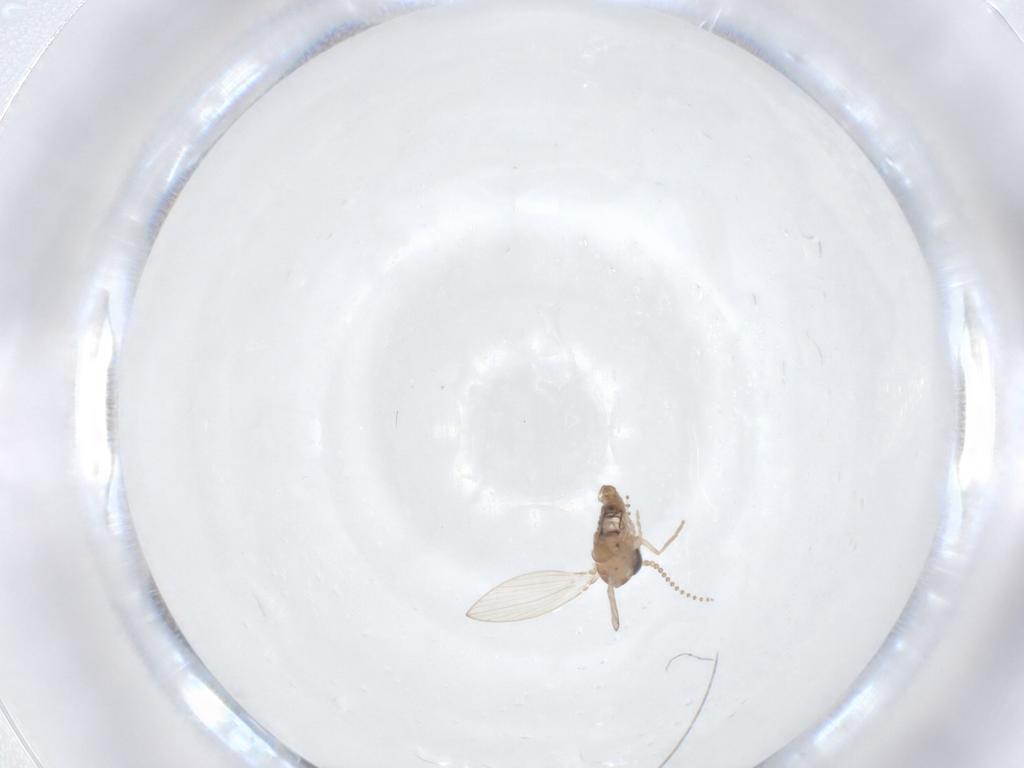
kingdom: Animalia
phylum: Arthropoda
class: Insecta
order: Diptera
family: Psychodidae
